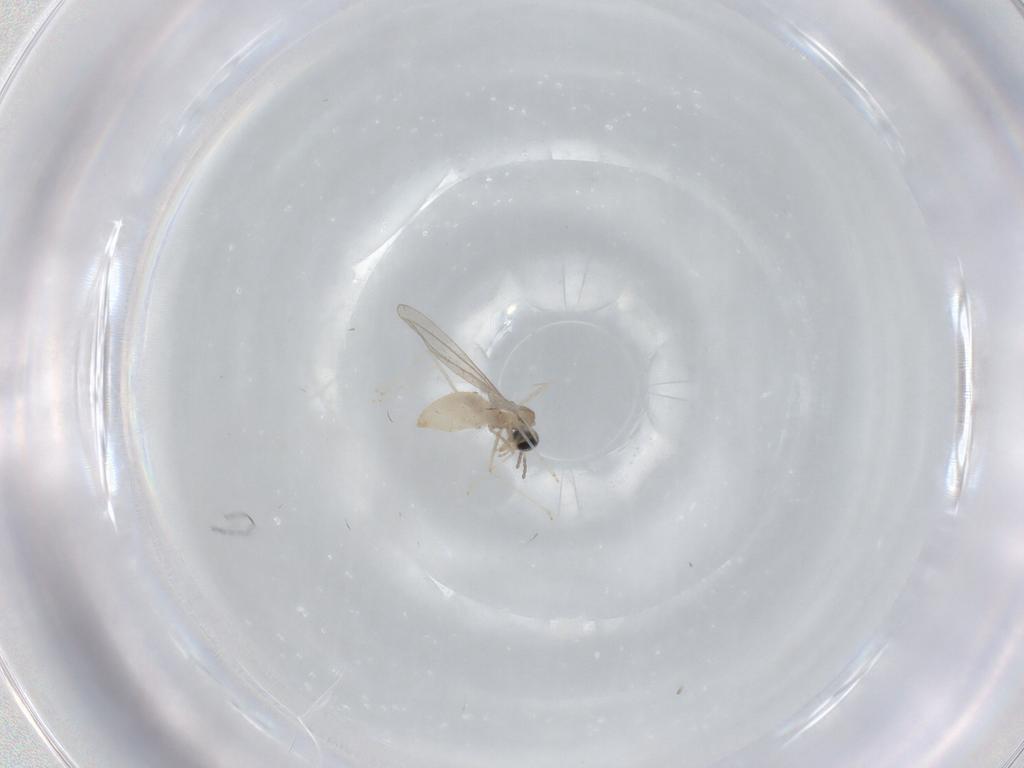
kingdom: Animalia
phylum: Arthropoda
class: Insecta
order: Diptera
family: Cecidomyiidae
